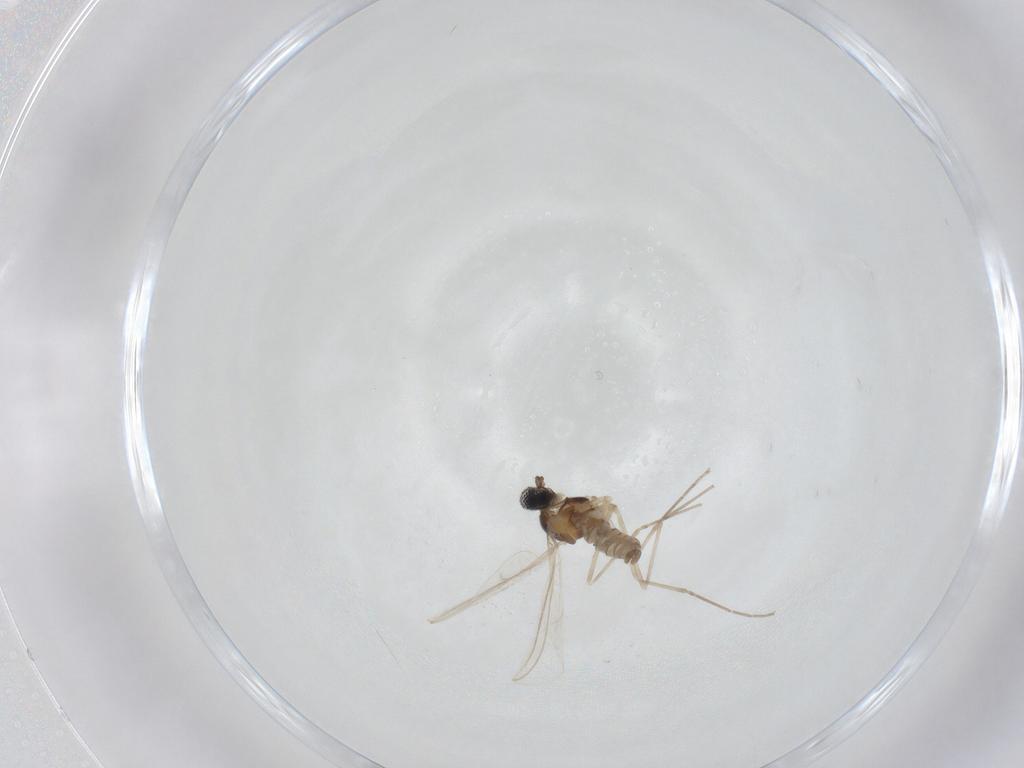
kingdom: Animalia
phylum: Arthropoda
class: Insecta
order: Diptera
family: Cecidomyiidae
